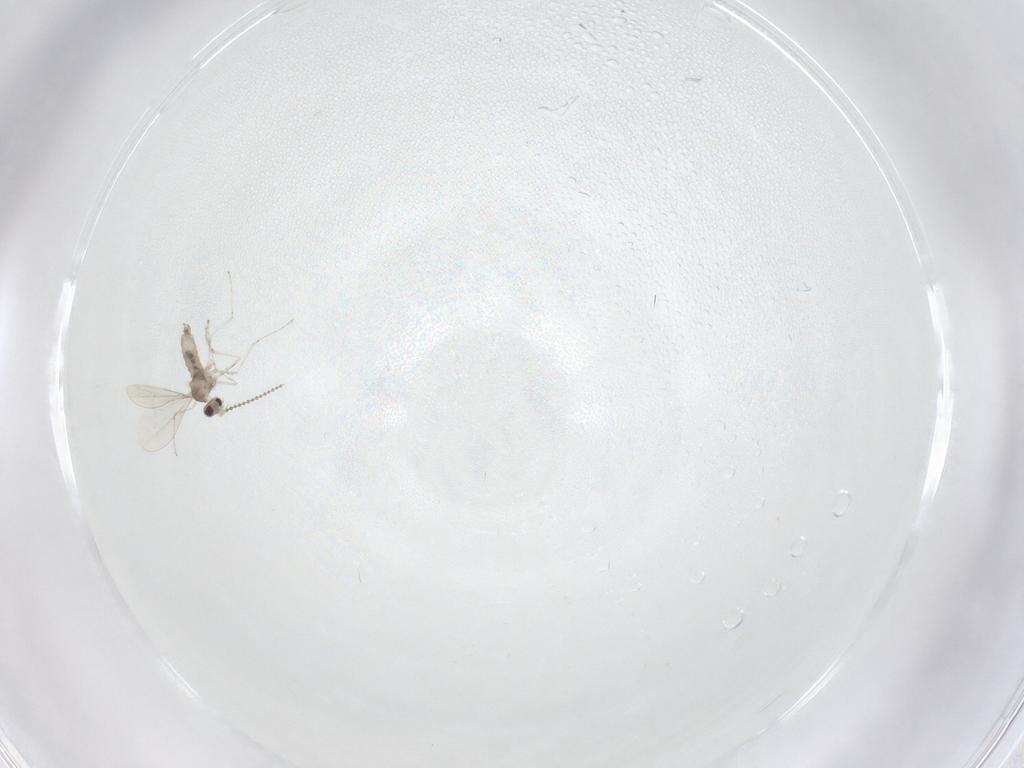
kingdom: Animalia
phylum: Arthropoda
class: Insecta
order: Diptera
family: Cecidomyiidae
